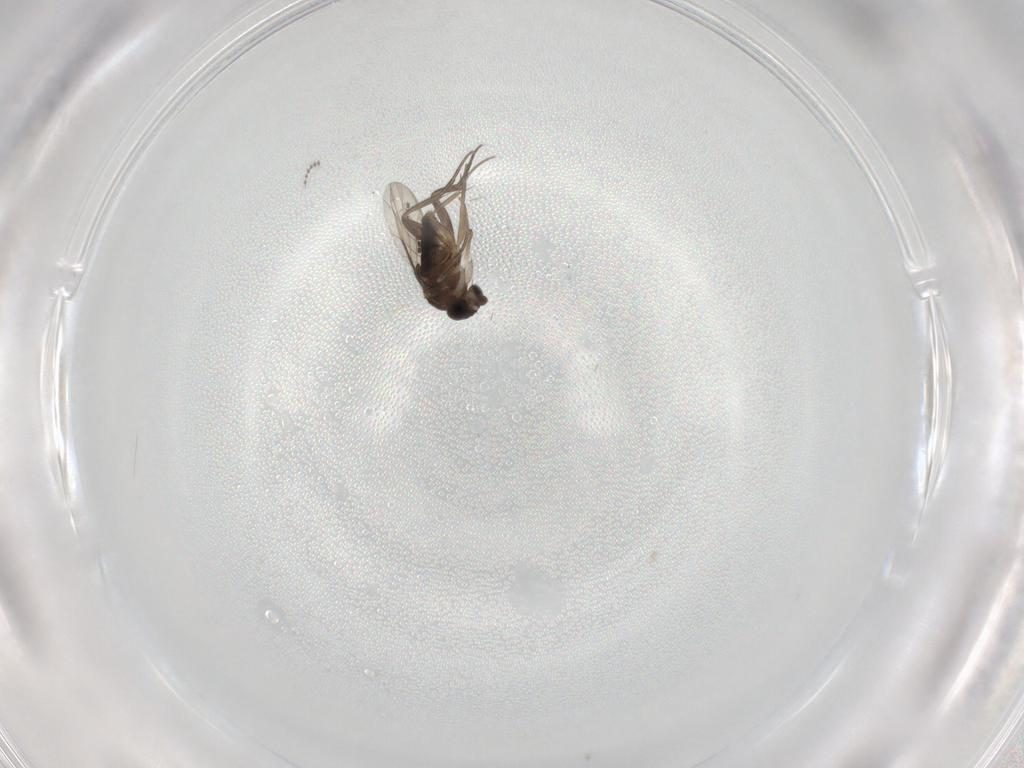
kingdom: Animalia
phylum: Arthropoda
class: Insecta
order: Diptera
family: Phoridae
